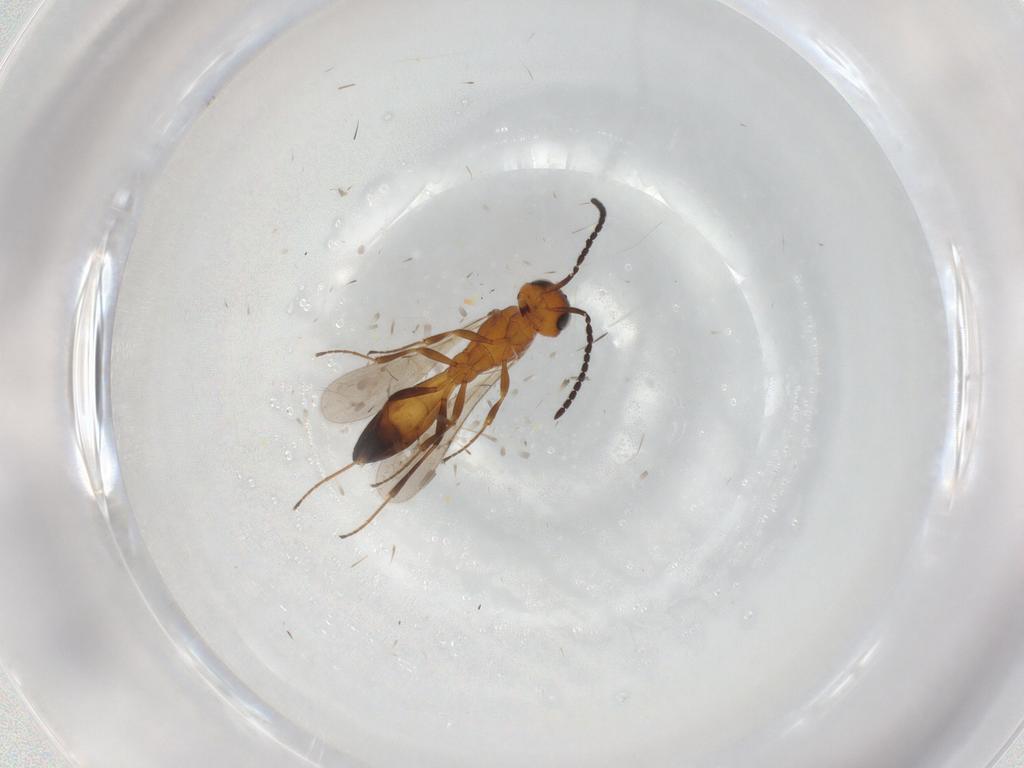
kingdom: Animalia
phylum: Arthropoda
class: Insecta
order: Hymenoptera
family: Scelionidae
